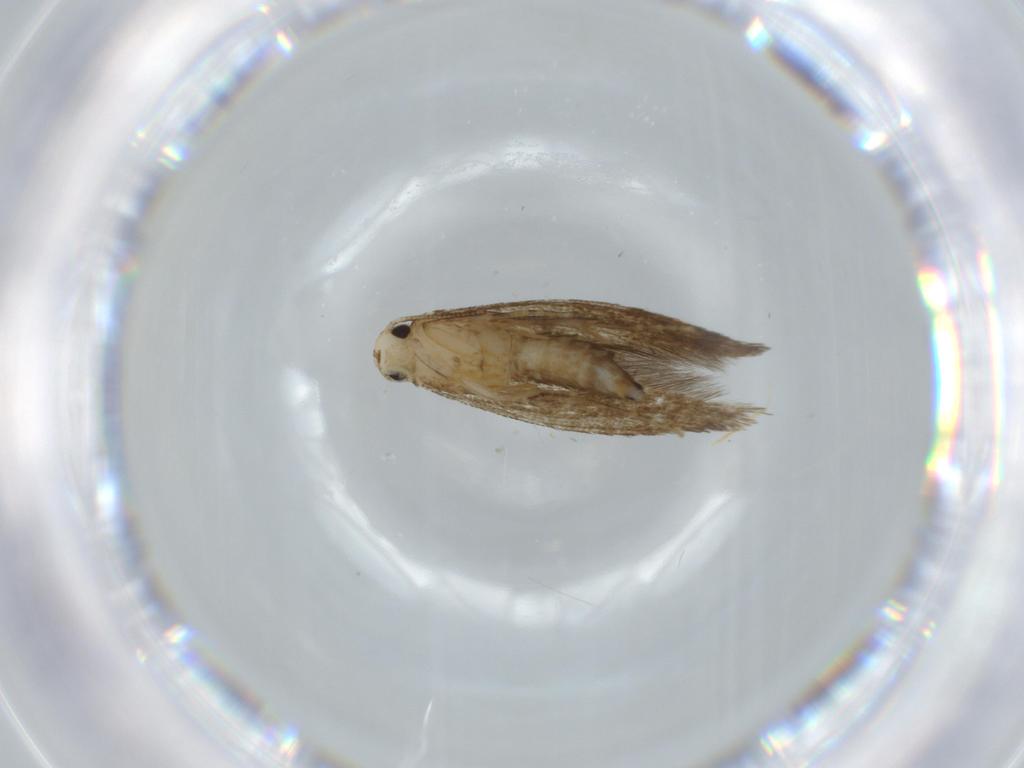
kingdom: Animalia
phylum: Arthropoda
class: Insecta
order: Lepidoptera
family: Tineidae
